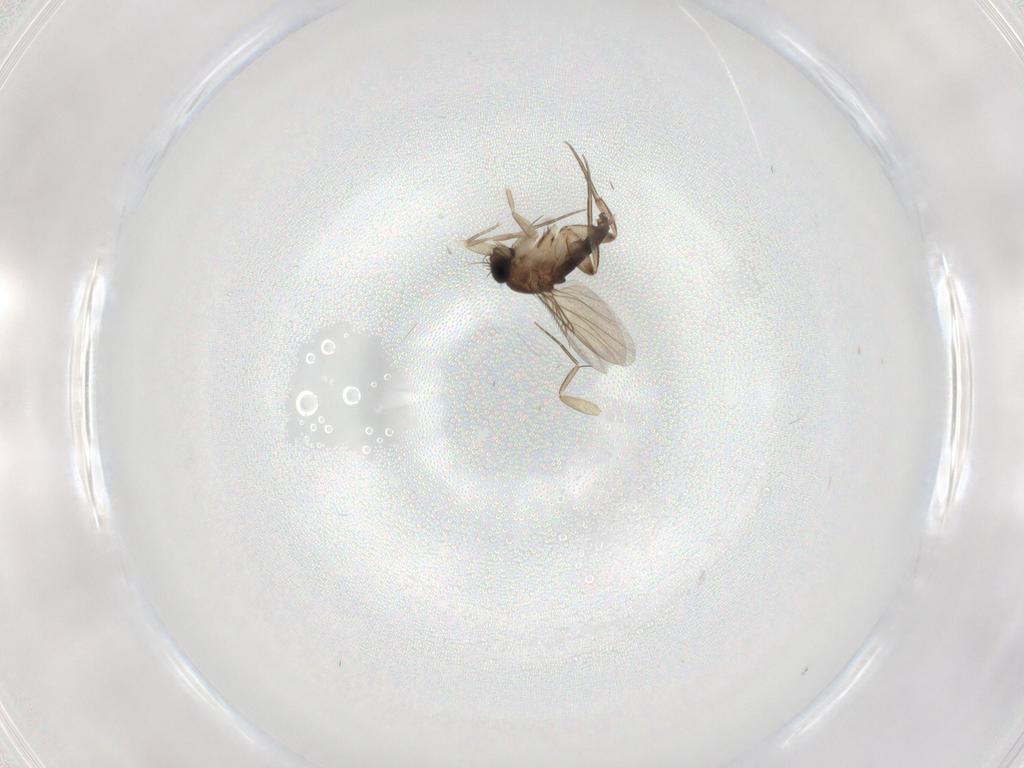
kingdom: Animalia
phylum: Arthropoda
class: Insecta
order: Diptera
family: Phoridae
